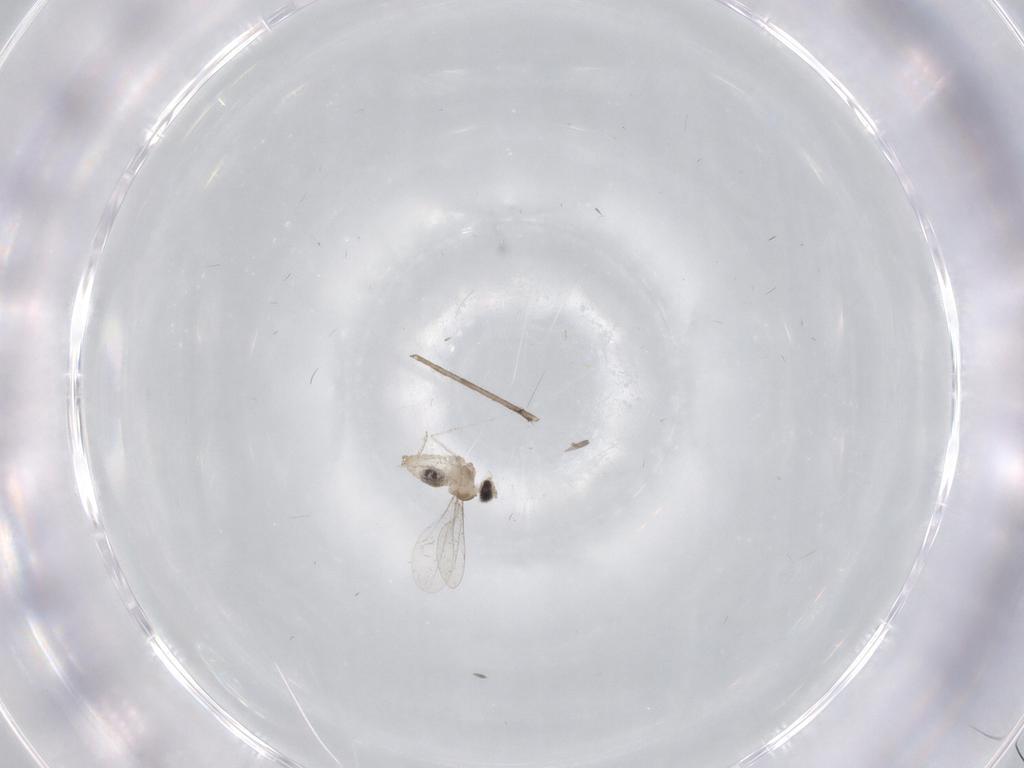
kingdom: Animalia
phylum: Arthropoda
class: Insecta
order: Diptera
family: Cecidomyiidae
